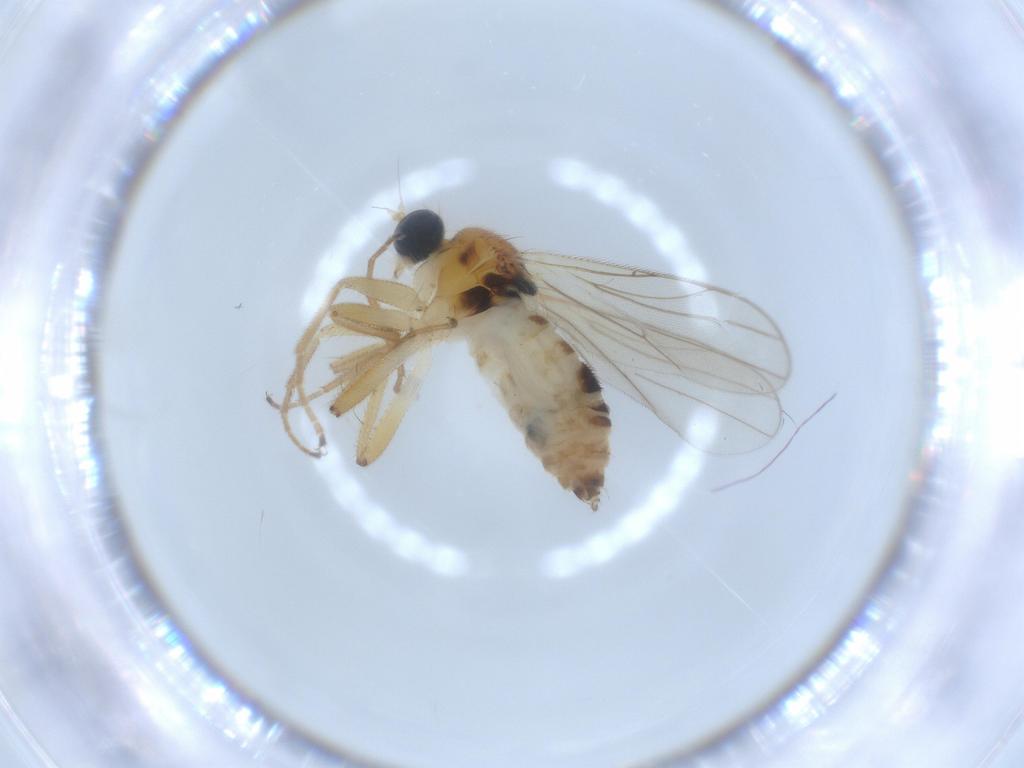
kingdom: Animalia
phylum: Arthropoda
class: Insecta
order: Diptera
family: Hybotidae
